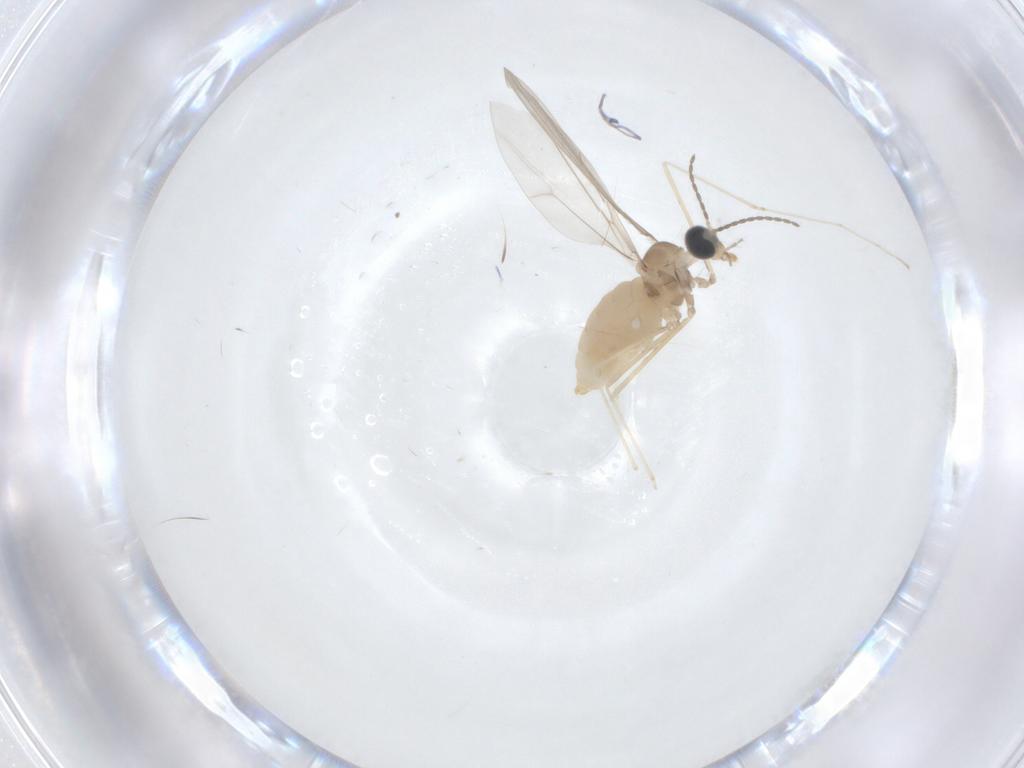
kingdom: Animalia
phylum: Arthropoda
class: Insecta
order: Diptera
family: Cecidomyiidae
